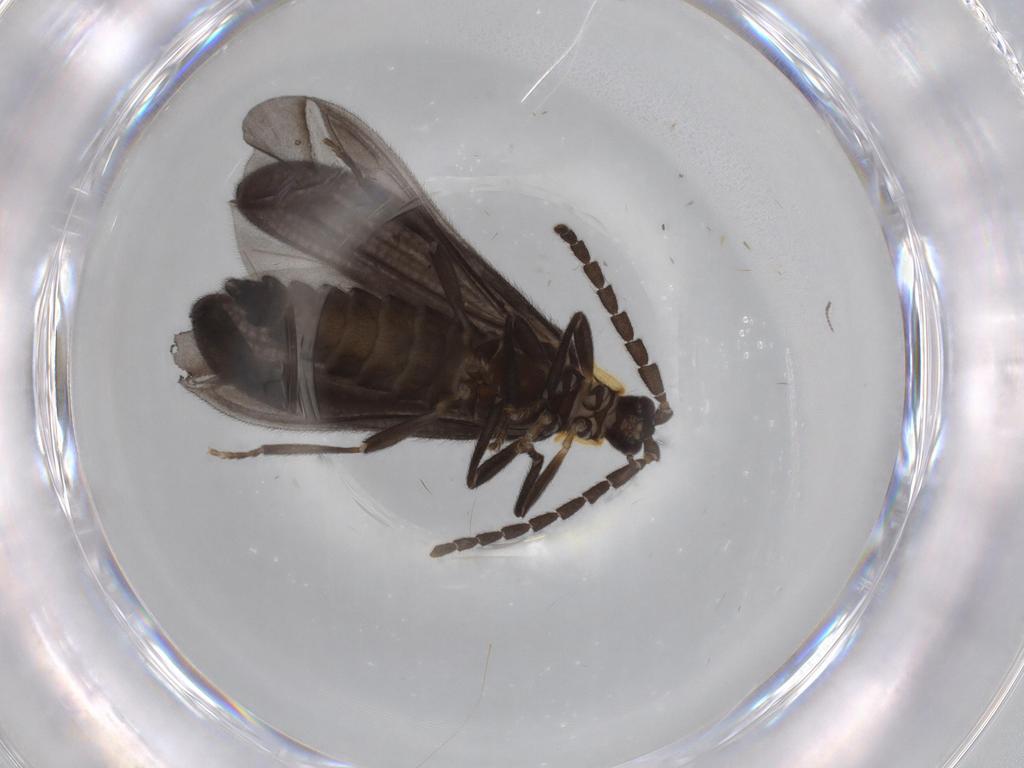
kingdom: Animalia
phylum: Arthropoda
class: Insecta
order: Coleoptera
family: Lycidae
